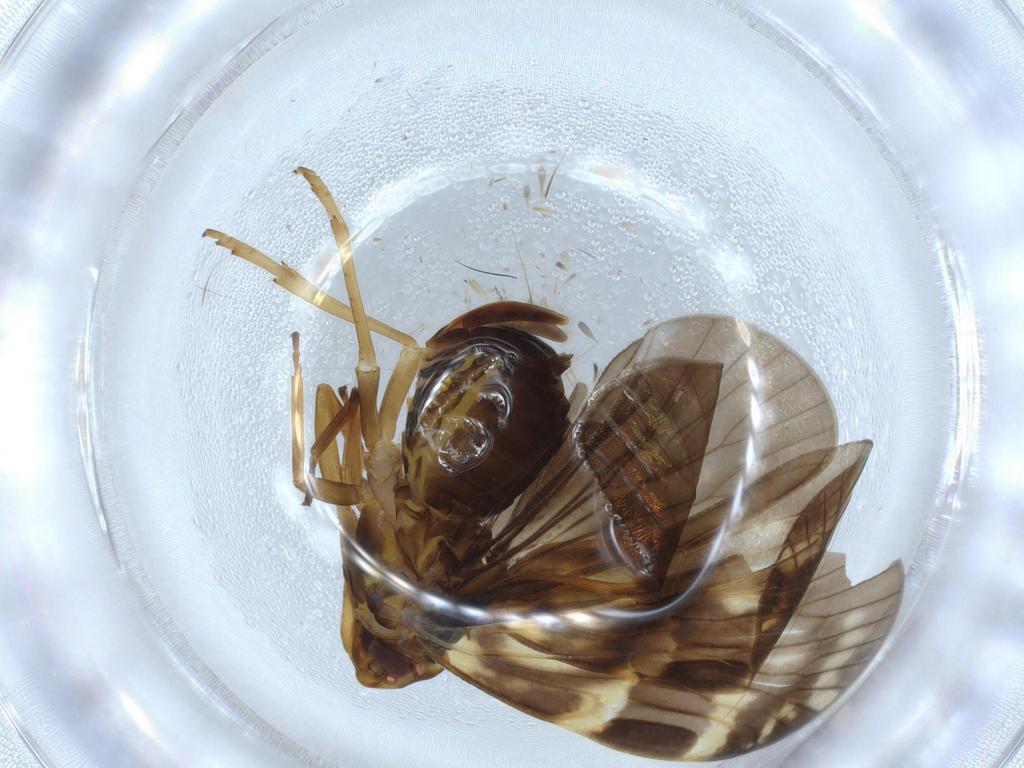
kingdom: Animalia
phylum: Arthropoda
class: Insecta
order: Hemiptera
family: Cixiidae
